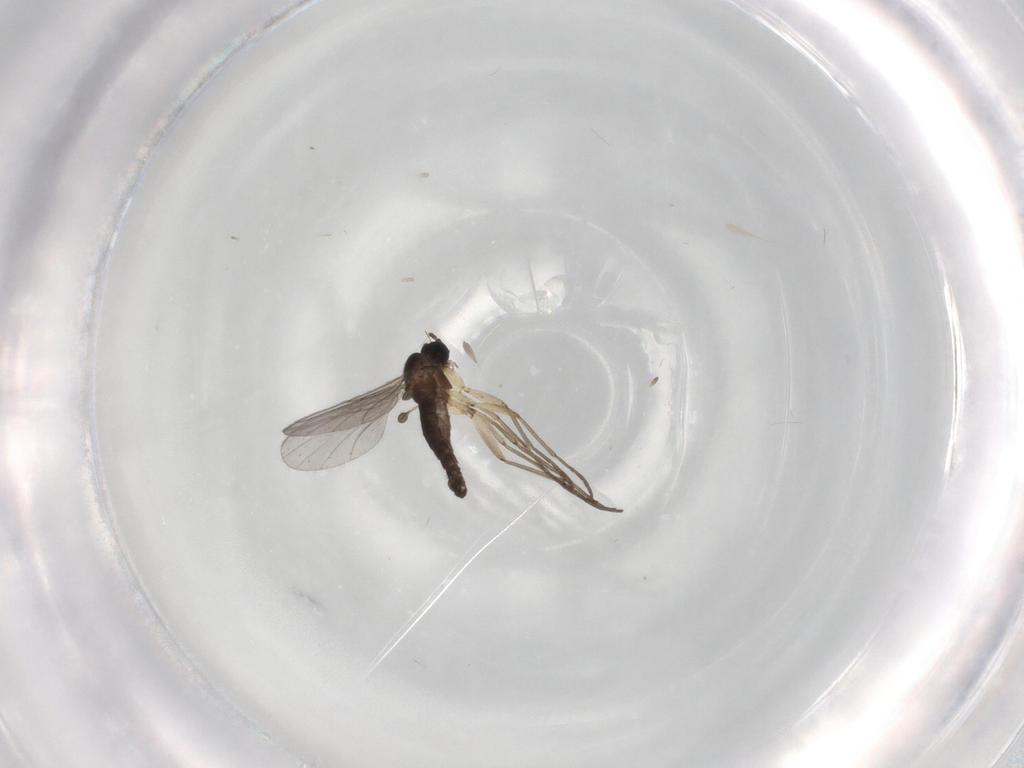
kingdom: Animalia
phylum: Arthropoda
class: Insecta
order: Diptera
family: Sciaridae
